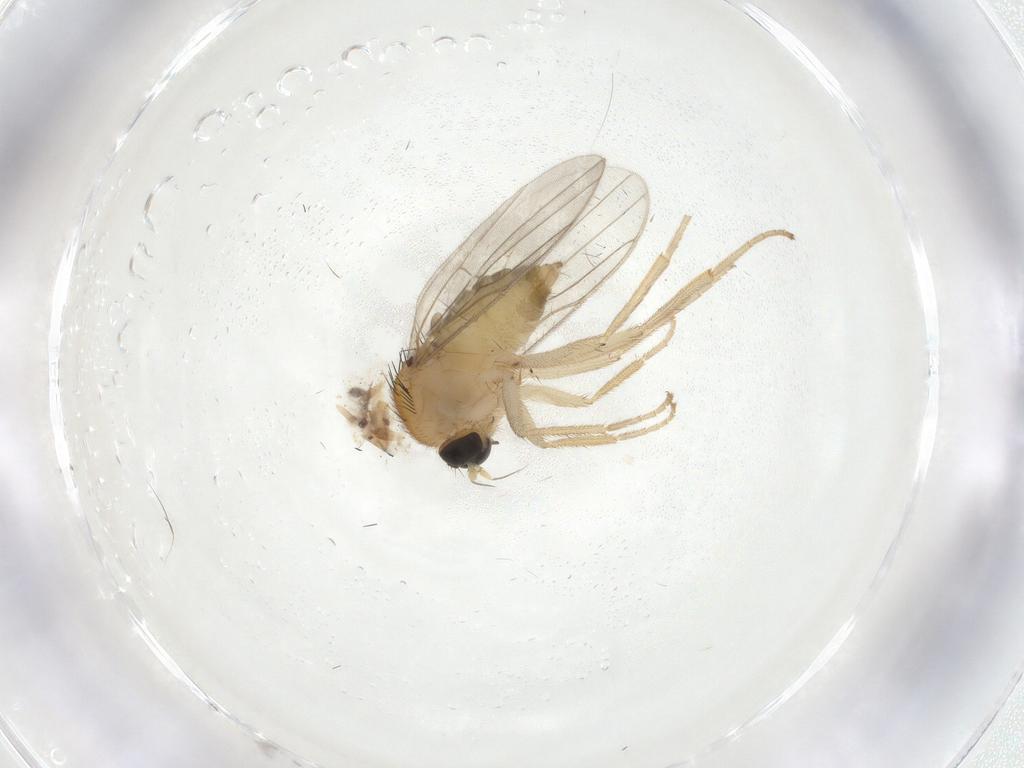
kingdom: Animalia
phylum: Arthropoda
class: Insecta
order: Diptera
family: Hybotidae
